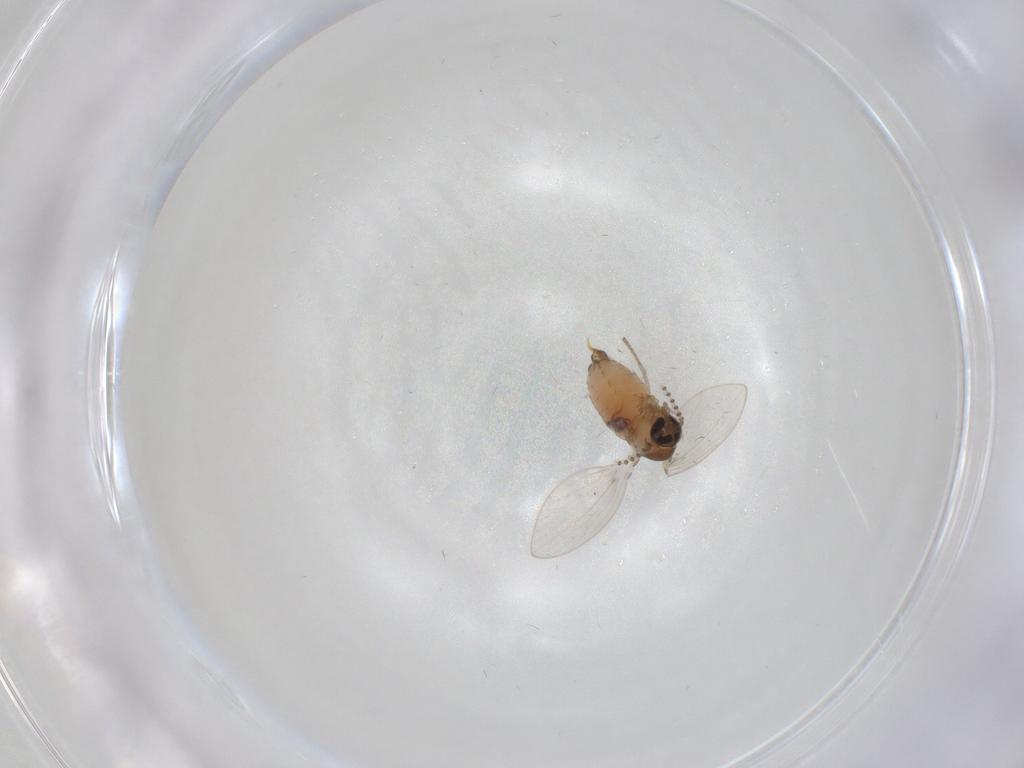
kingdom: Animalia
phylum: Arthropoda
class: Insecta
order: Diptera
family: Psychodidae
